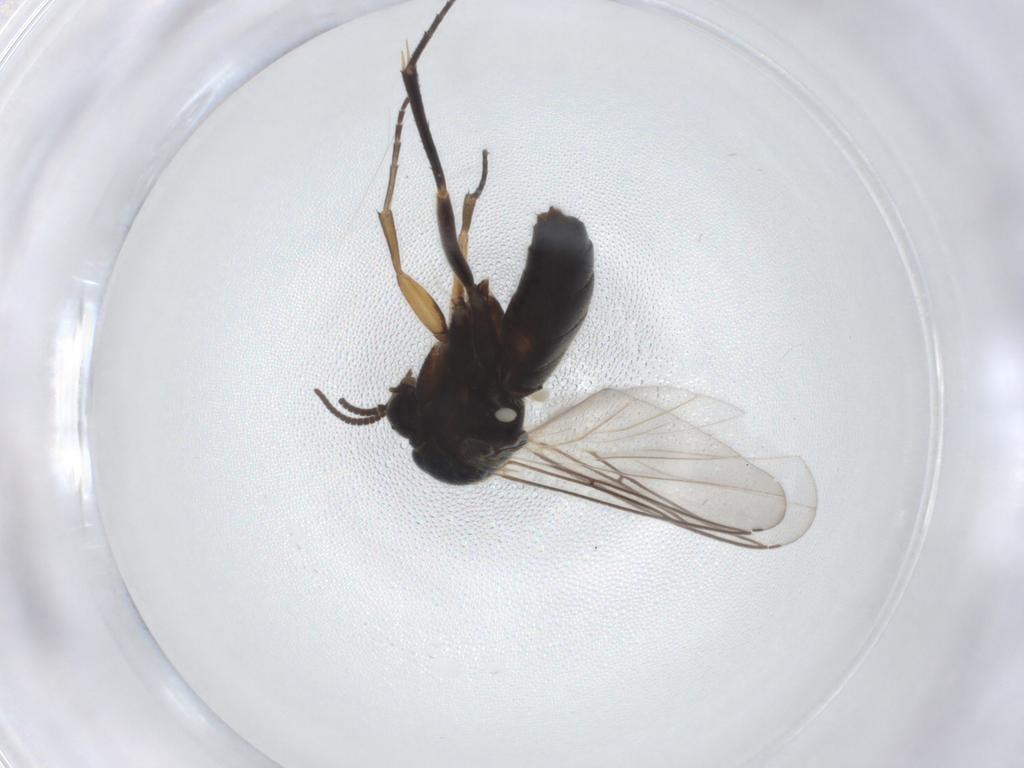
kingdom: Animalia
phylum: Arthropoda
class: Insecta
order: Diptera
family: Mycetophilidae
